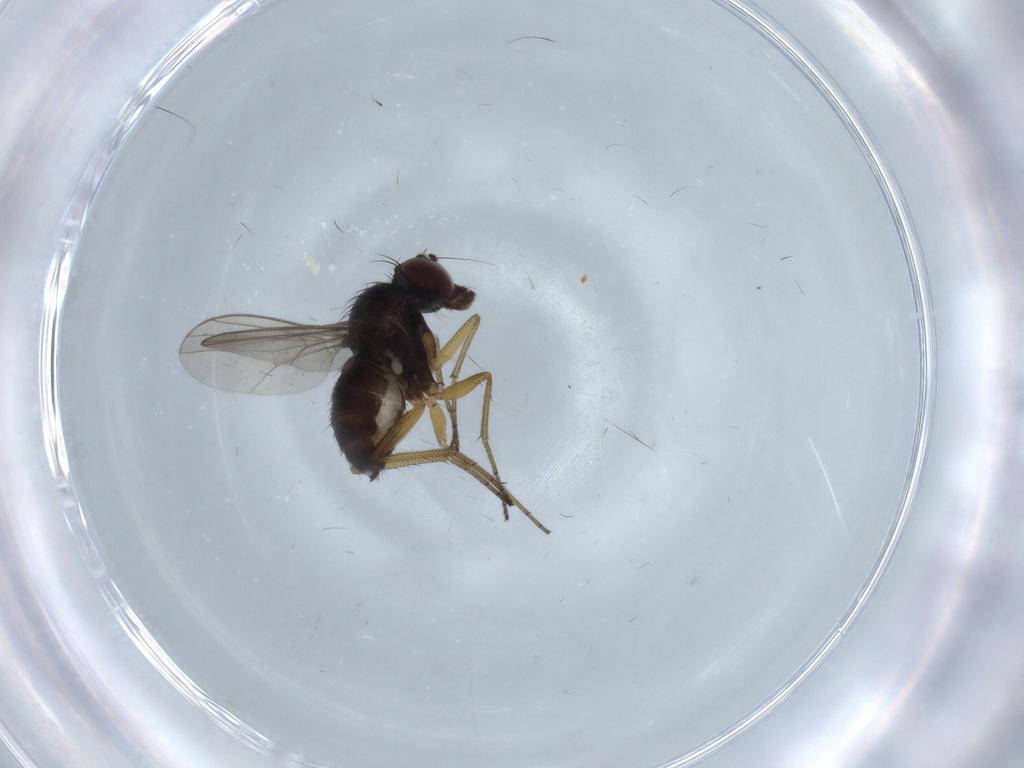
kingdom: Animalia
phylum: Arthropoda
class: Insecta
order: Diptera
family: Dolichopodidae
